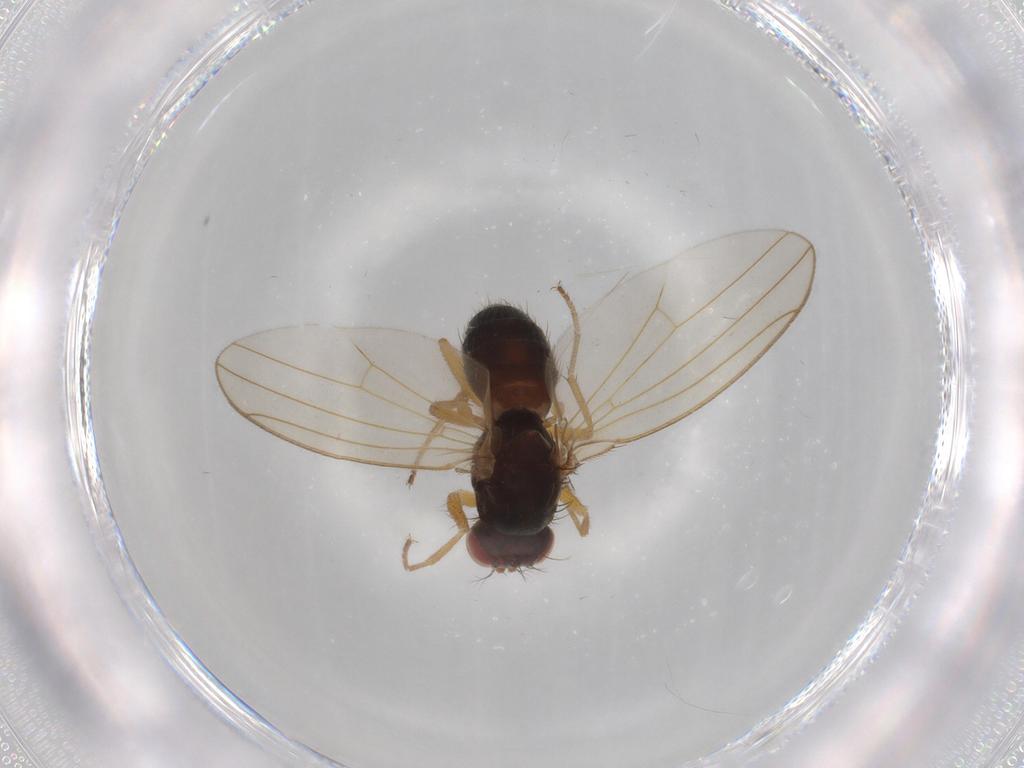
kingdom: Animalia
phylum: Arthropoda
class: Insecta
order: Diptera
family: Drosophilidae
